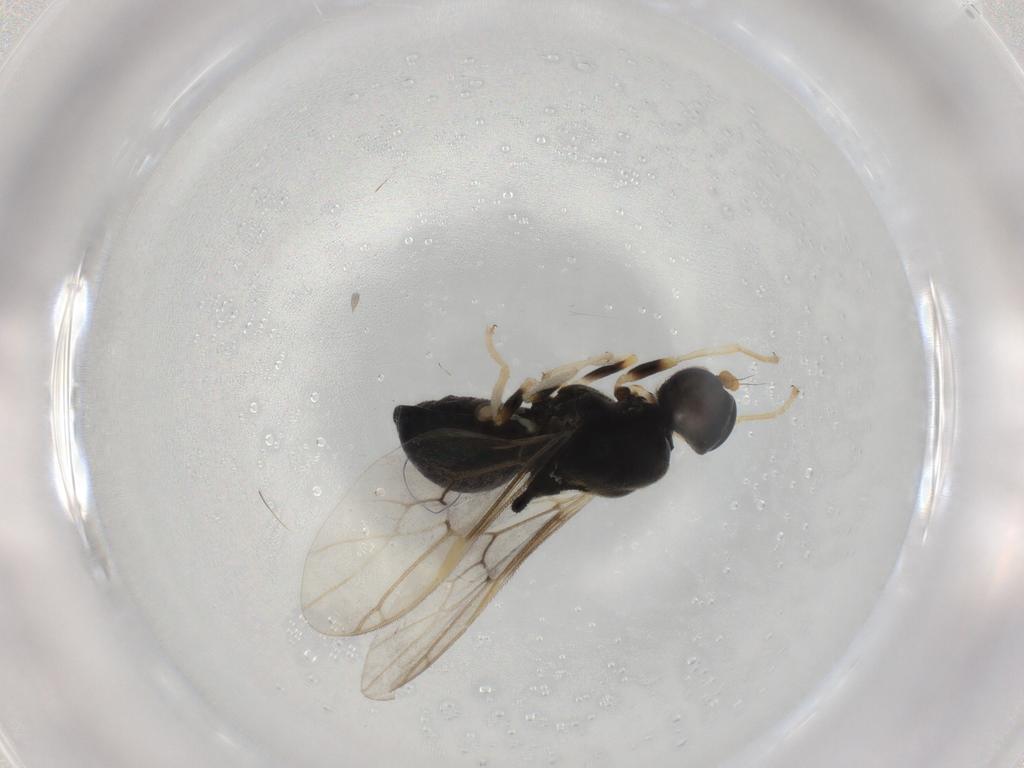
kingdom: Animalia
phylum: Arthropoda
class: Insecta
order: Diptera
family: Stratiomyidae
